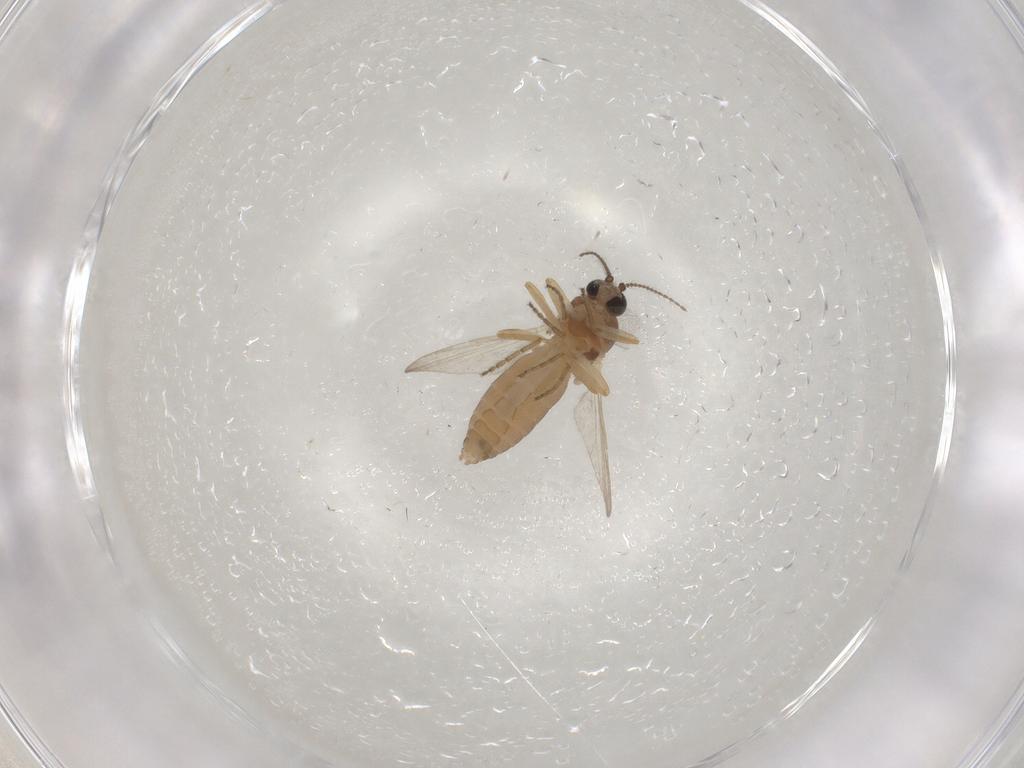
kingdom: Animalia
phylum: Arthropoda
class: Insecta
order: Diptera
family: Ceratopogonidae
